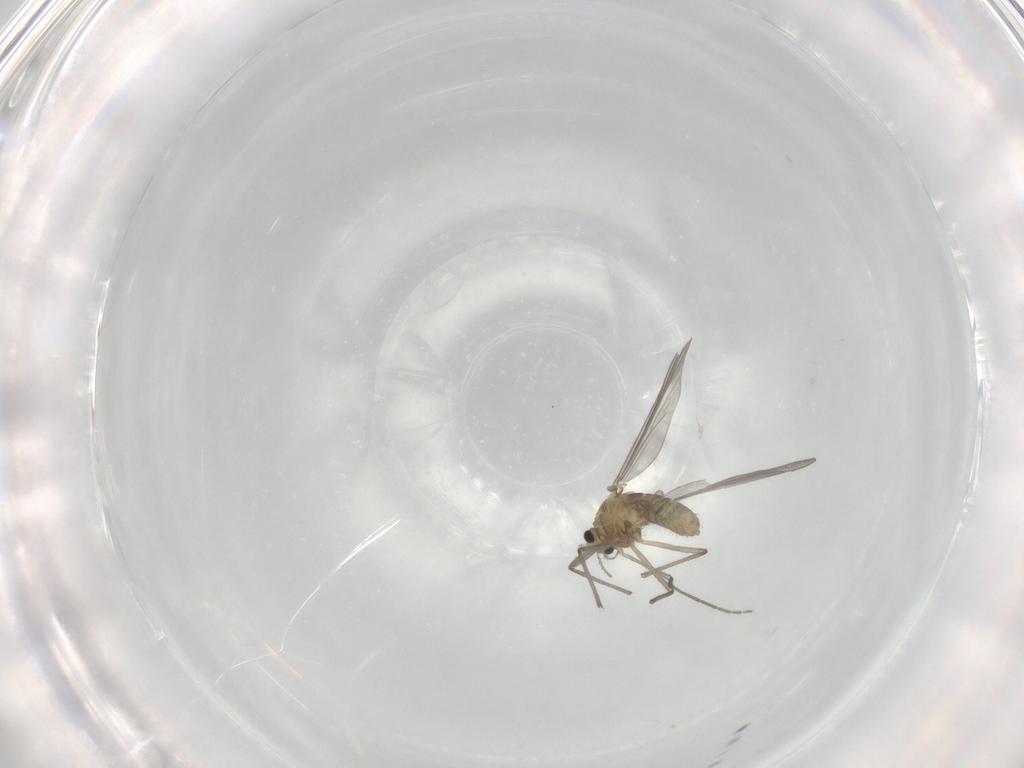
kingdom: Animalia
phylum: Arthropoda
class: Insecta
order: Diptera
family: Chironomidae
